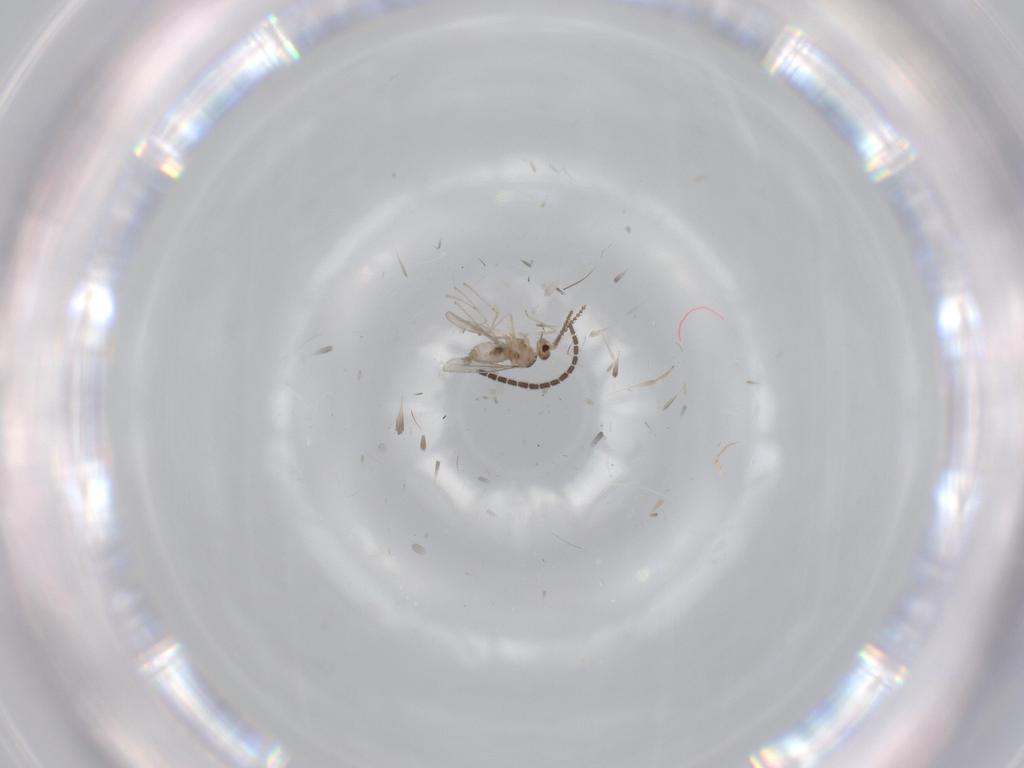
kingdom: Animalia
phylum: Arthropoda
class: Insecta
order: Diptera
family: Cecidomyiidae
